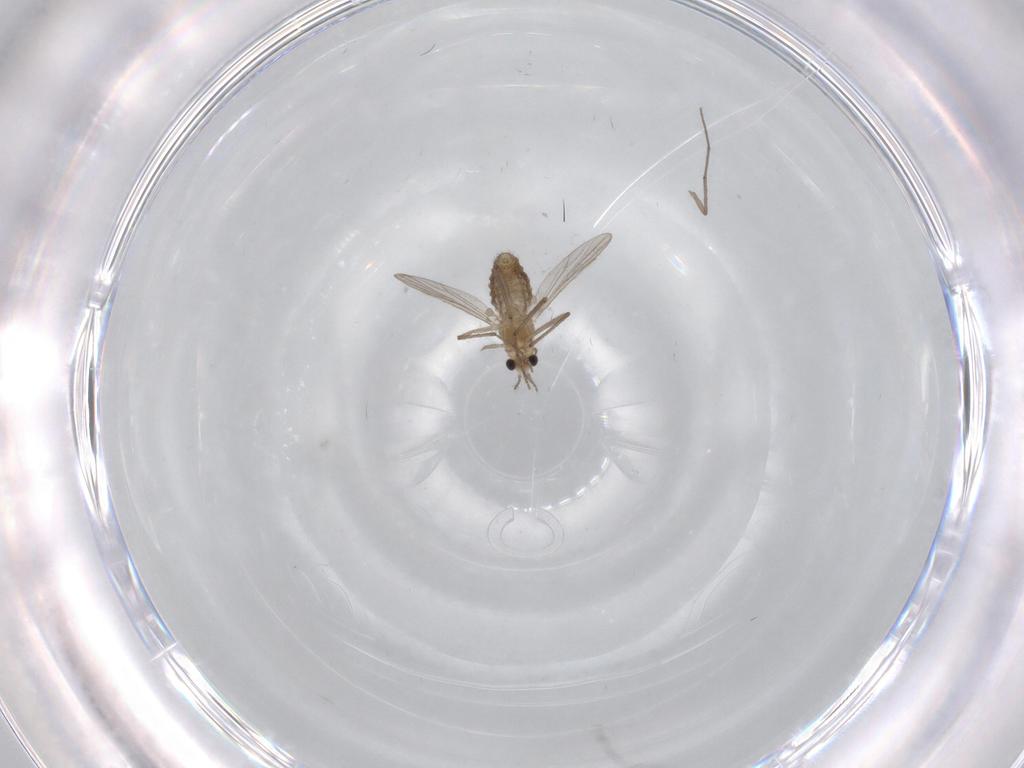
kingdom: Animalia
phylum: Arthropoda
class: Insecta
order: Diptera
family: Chironomidae
